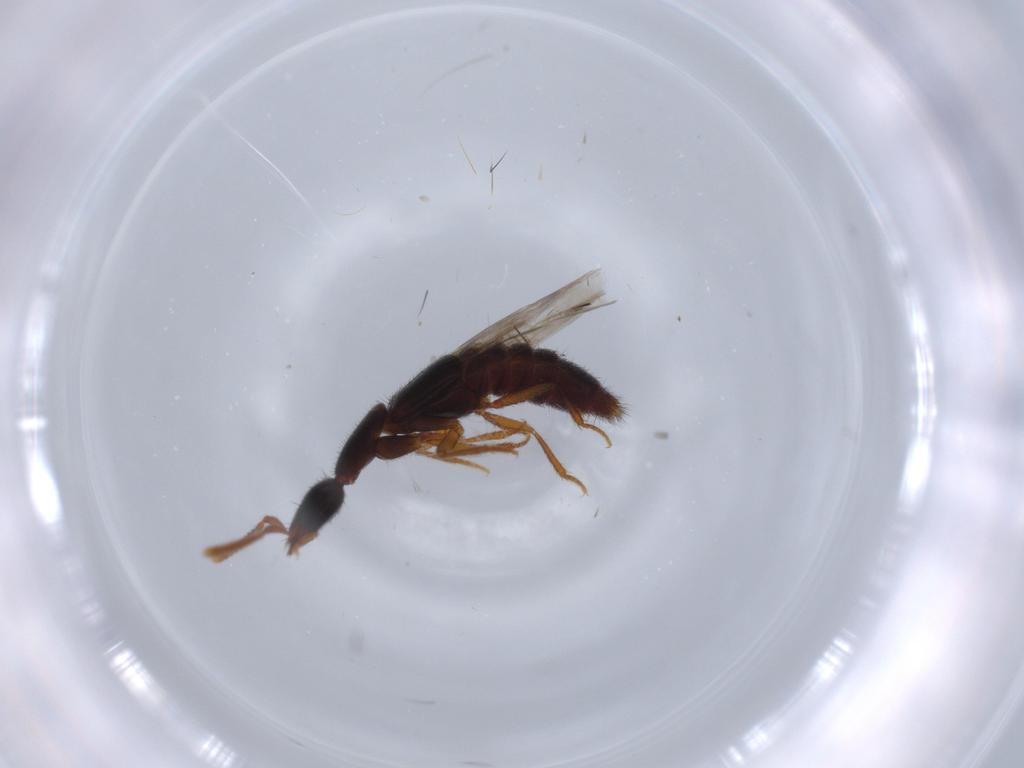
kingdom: Animalia
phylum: Arthropoda
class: Insecta
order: Coleoptera
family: Staphylinidae
